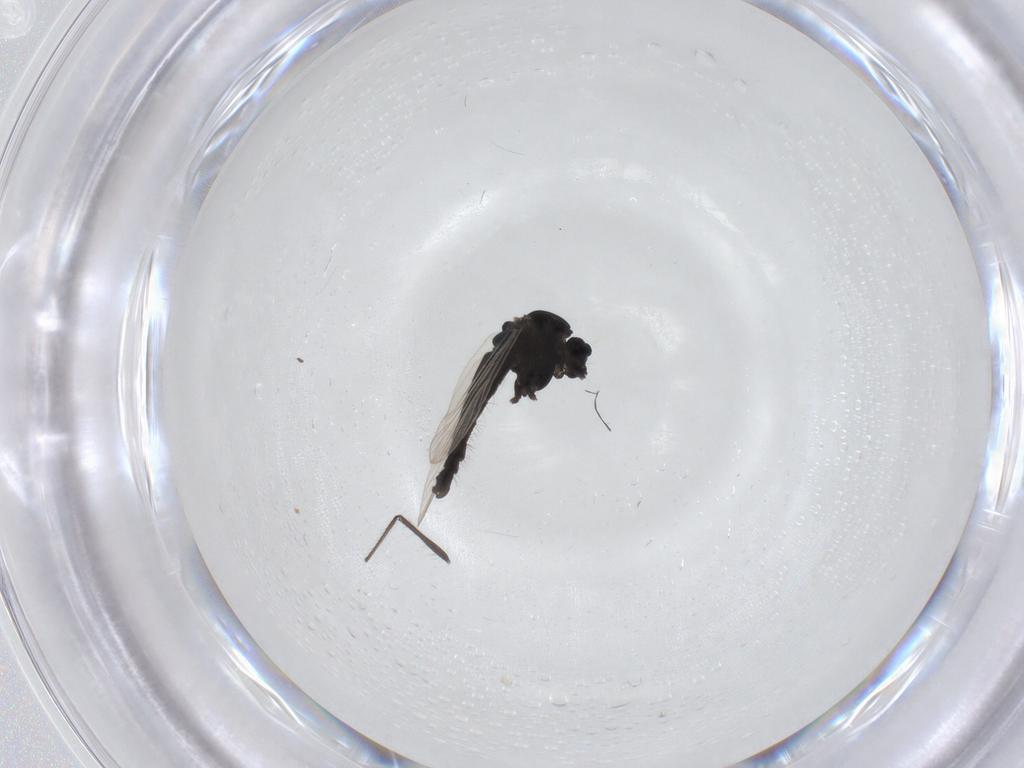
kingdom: Animalia
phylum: Arthropoda
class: Insecta
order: Diptera
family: Chironomidae
